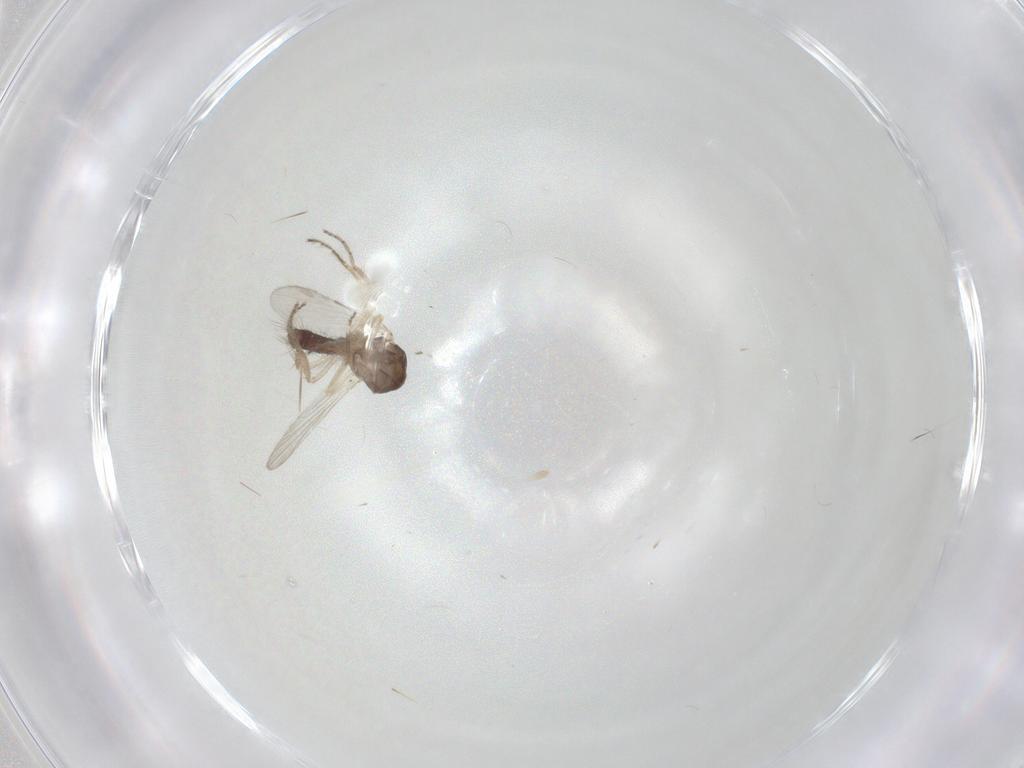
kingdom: Animalia
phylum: Arthropoda
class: Insecta
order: Diptera
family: Ceratopogonidae
